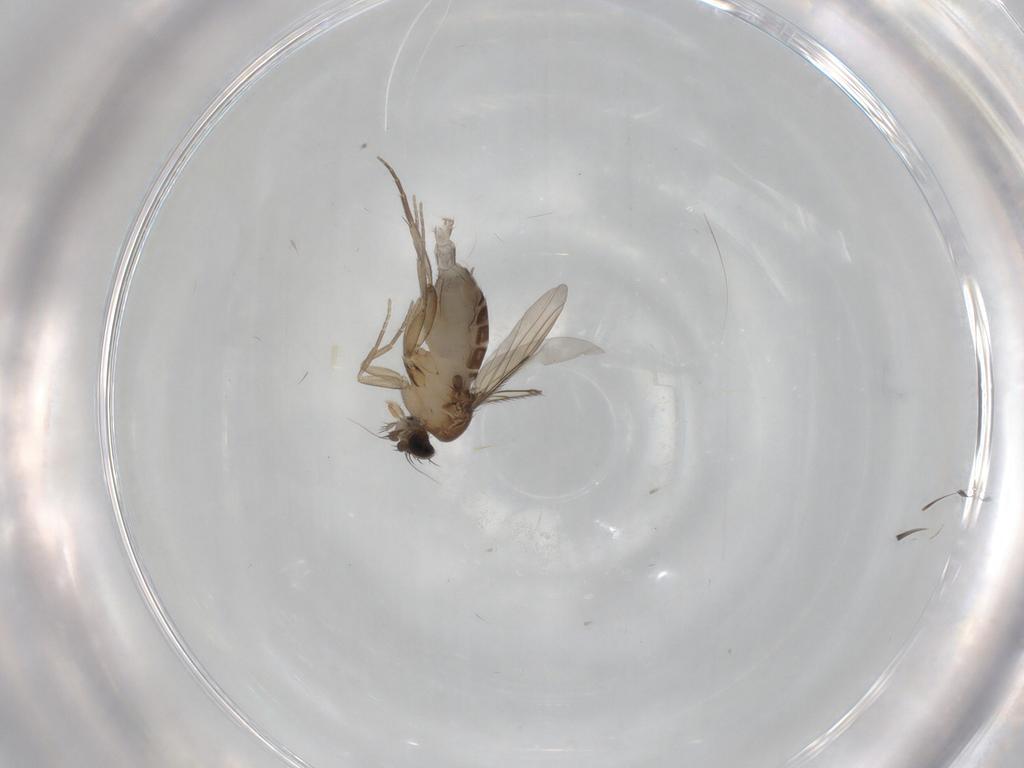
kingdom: Animalia
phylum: Arthropoda
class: Insecta
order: Diptera
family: Phoridae
